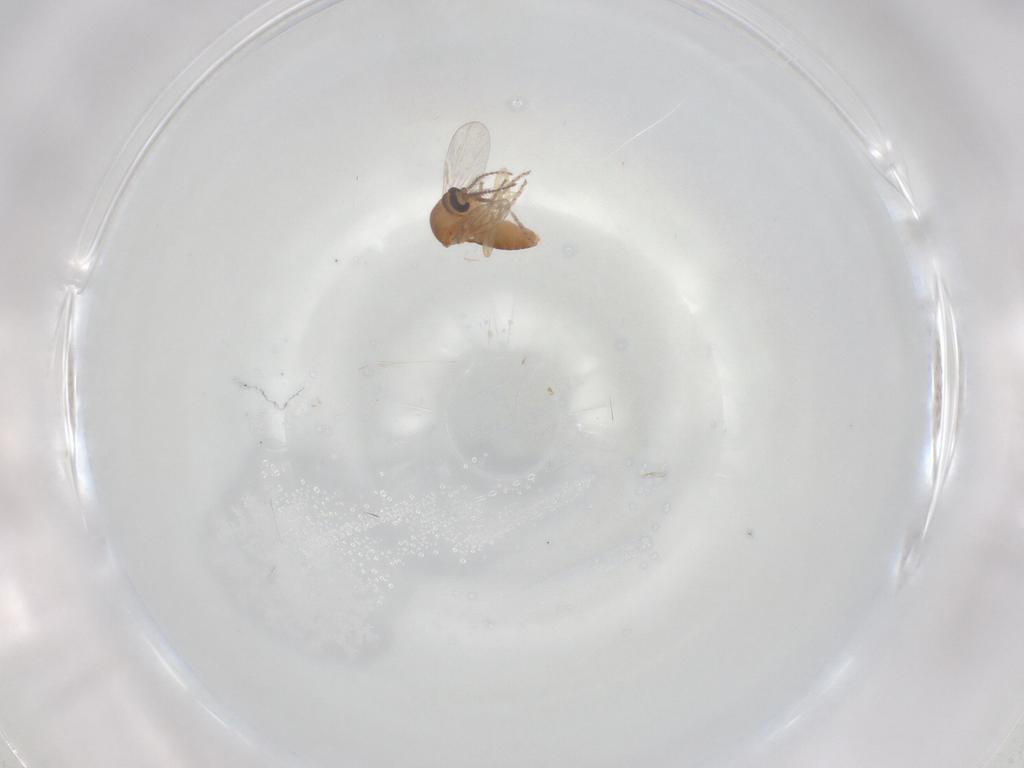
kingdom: Animalia
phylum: Arthropoda
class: Insecta
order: Diptera
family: Ceratopogonidae
